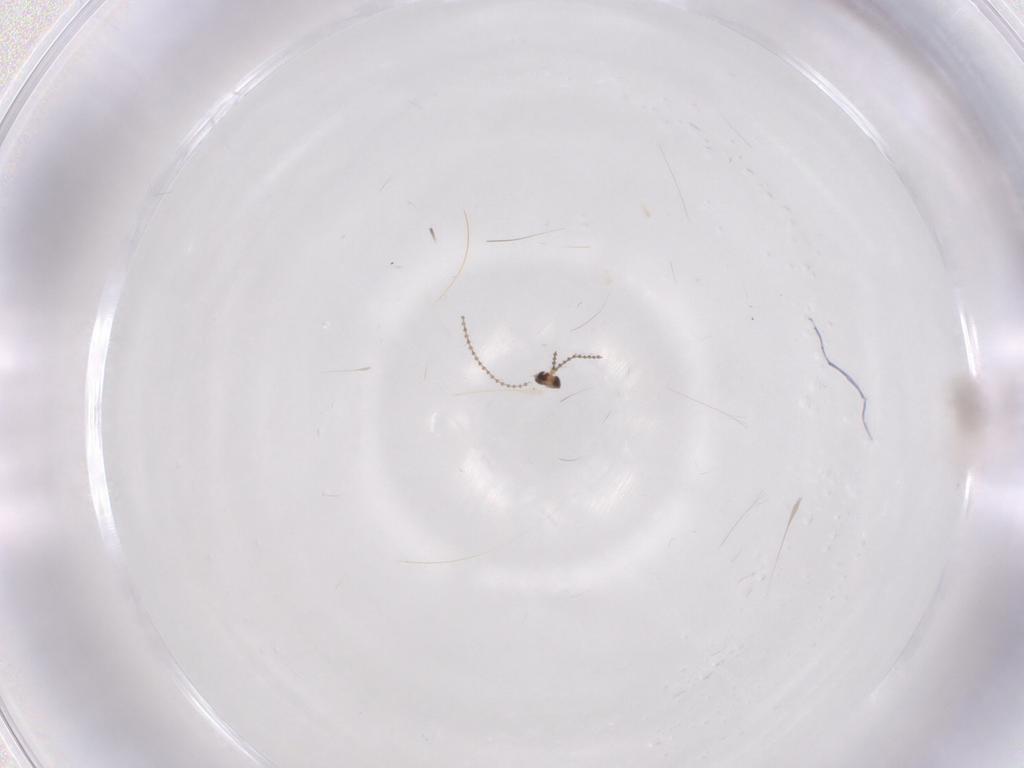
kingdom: Animalia
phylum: Arthropoda
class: Insecta
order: Diptera
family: Cecidomyiidae
